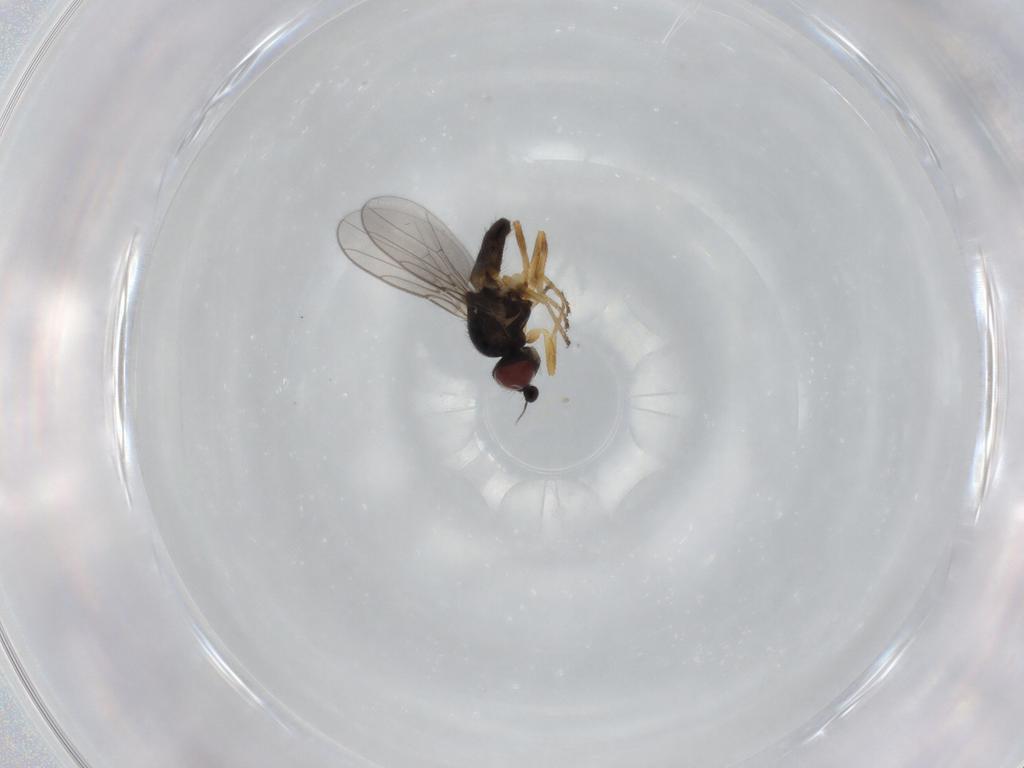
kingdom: Animalia
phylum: Arthropoda
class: Insecta
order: Diptera
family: Chloropidae
